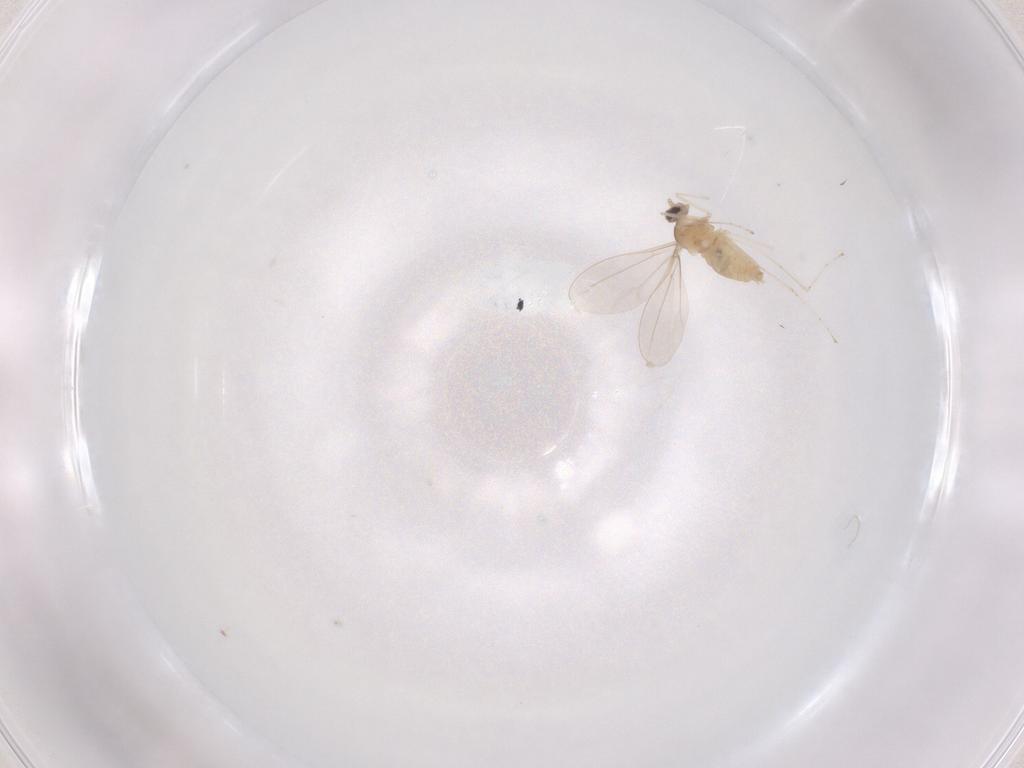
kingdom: Animalia
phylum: Arthropoda
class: Insecta
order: Diptera
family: Cecidomyiidae
